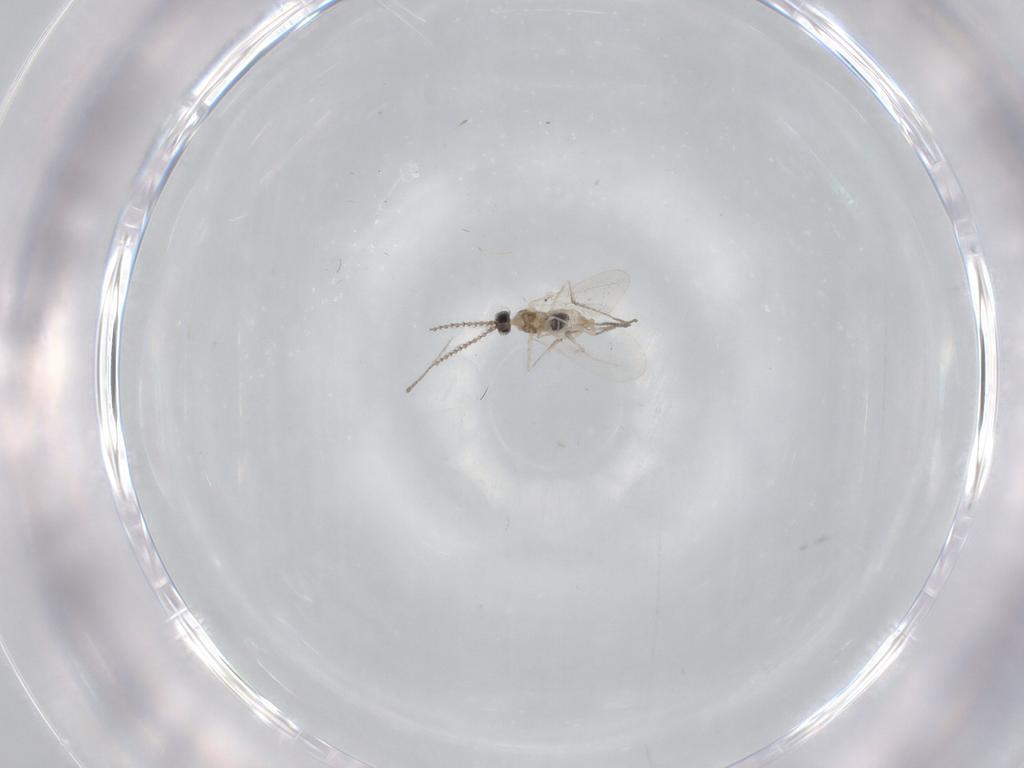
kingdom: Animalia
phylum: Arthropoda
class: Insecta
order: Diptera
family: Cecidomyiidae
